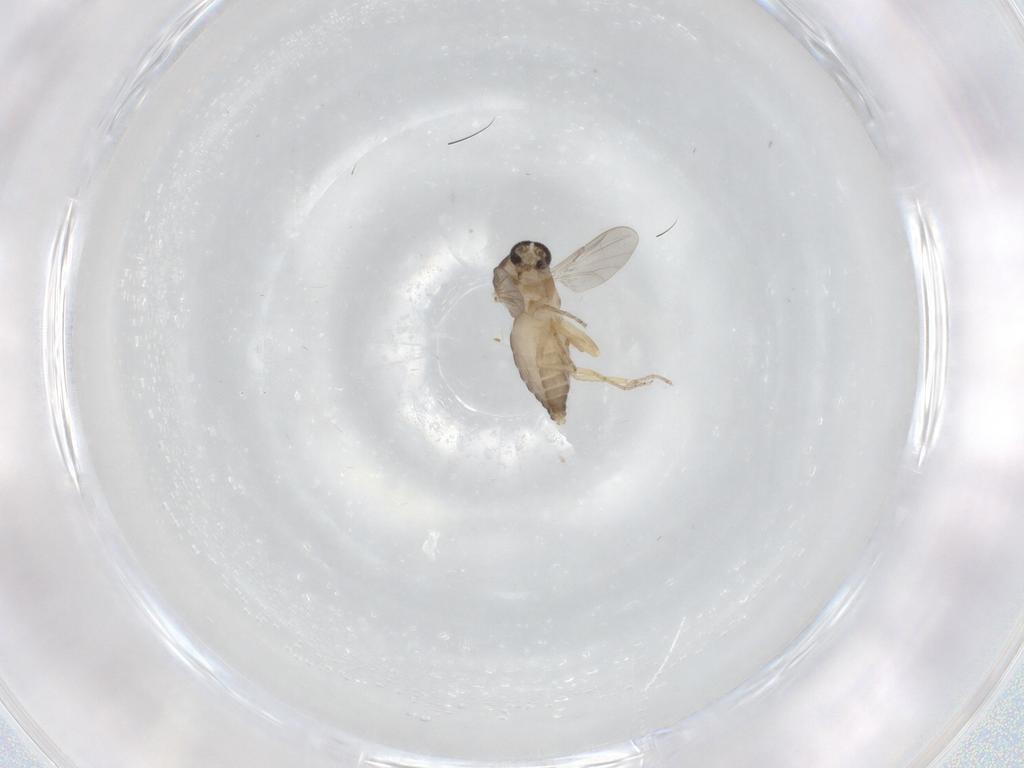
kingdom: Animalia
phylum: Arthropoda
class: Insecta
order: Diptera
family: Ceratopogonidae
